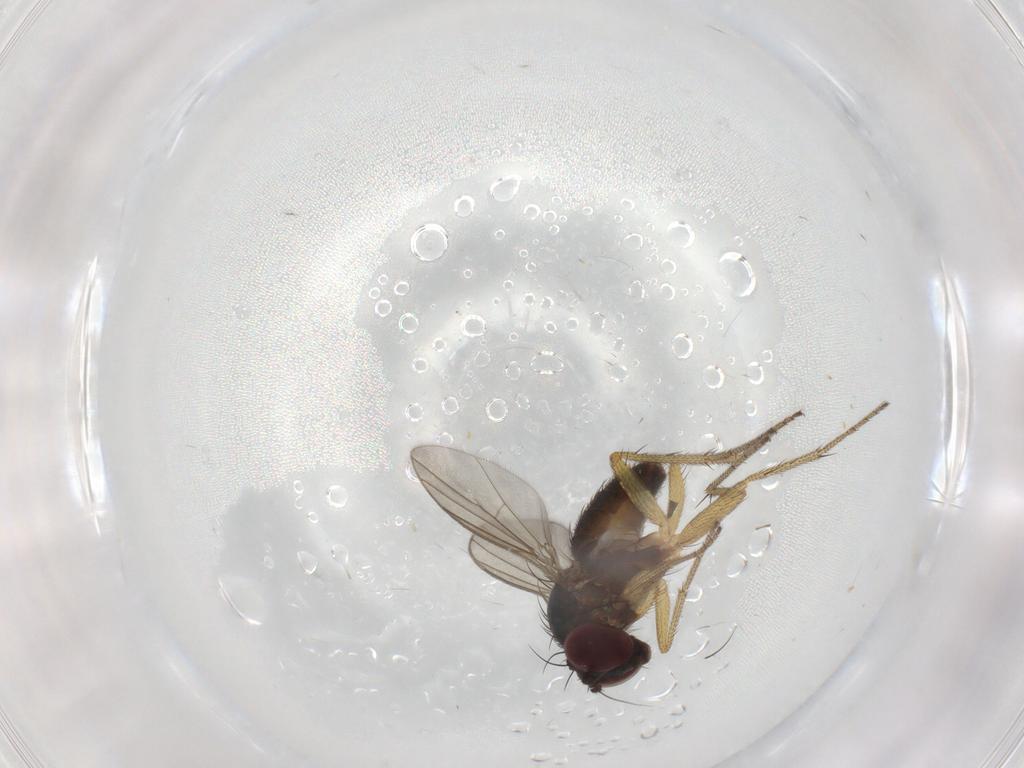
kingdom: Animalia
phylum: Arthropoda
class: Insecta
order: Diptera
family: Dolichopodidae
